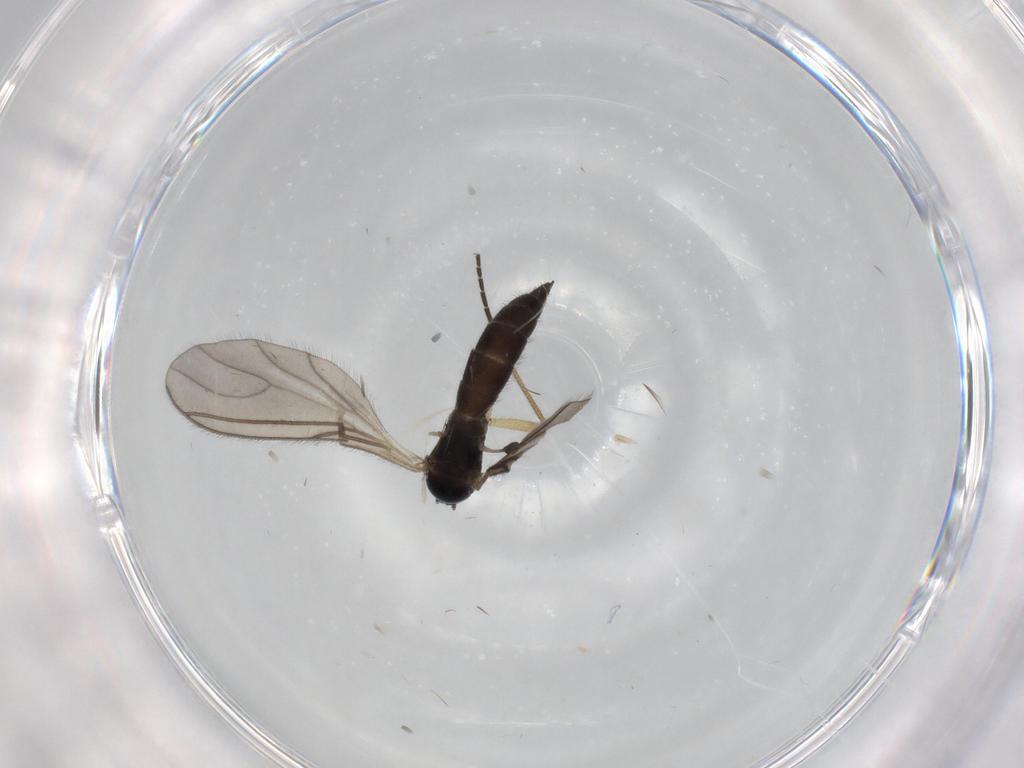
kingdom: Animalia
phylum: Arthropoda
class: Insecta
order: Diptera
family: Sciaridae
